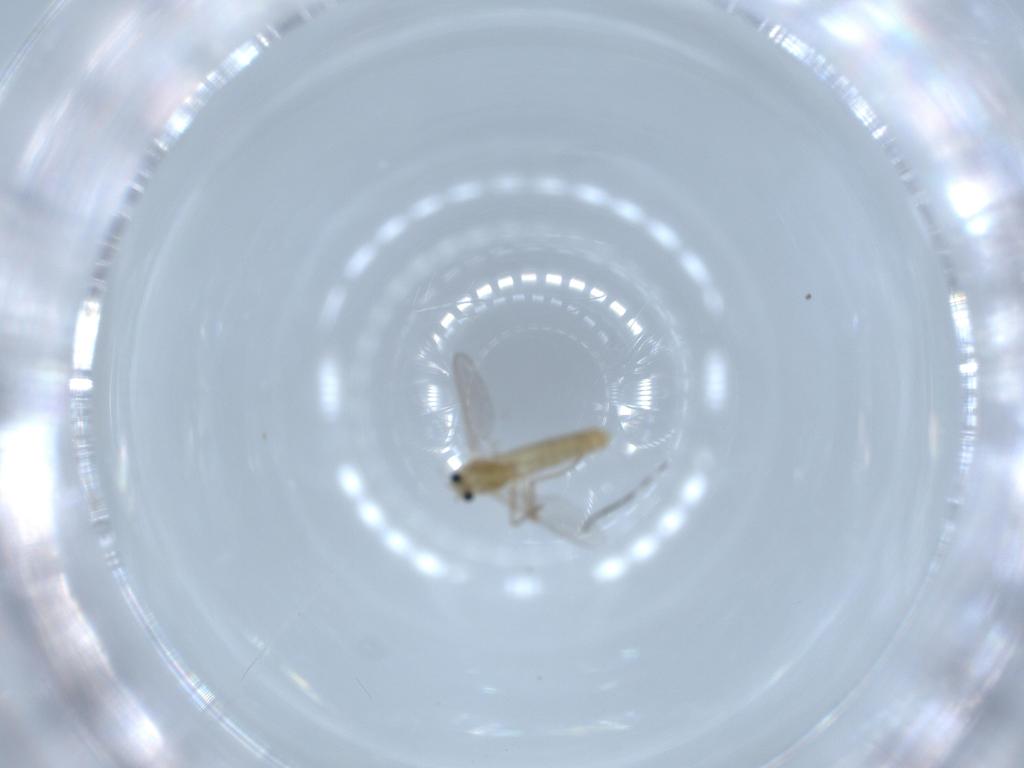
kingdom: Animalia
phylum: Arthropoda
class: Insecta
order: Diptera
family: Chironomidae
